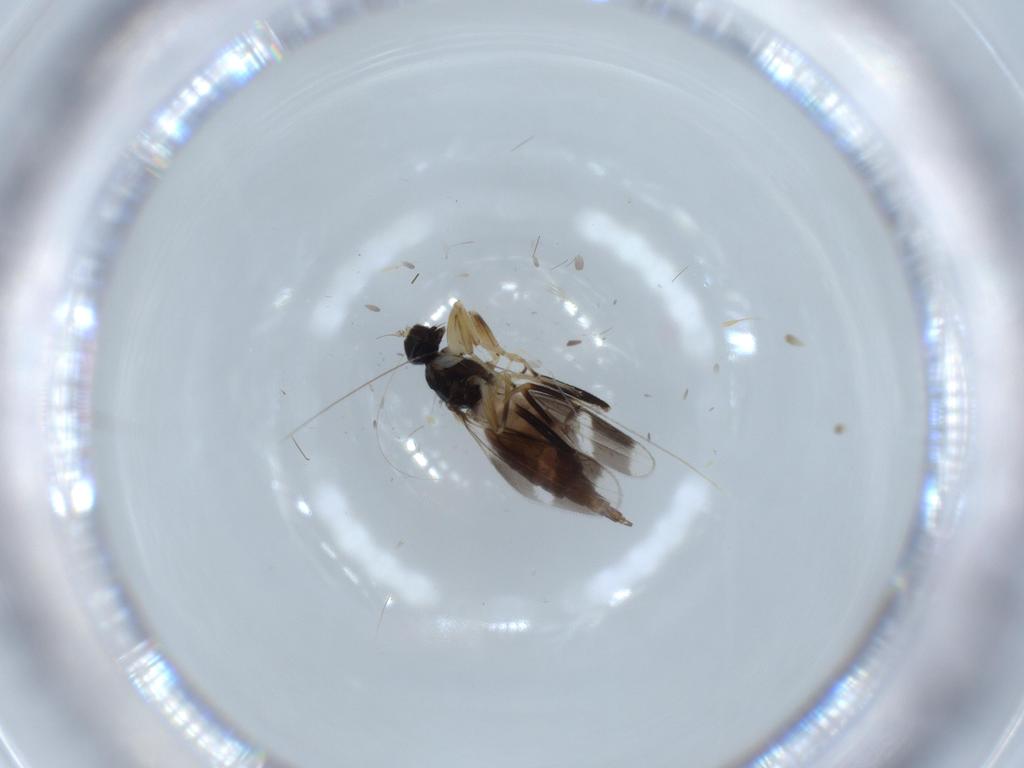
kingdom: Animalia
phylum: Arthropoda
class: Insecta
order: Diptera
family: Hybotidae
